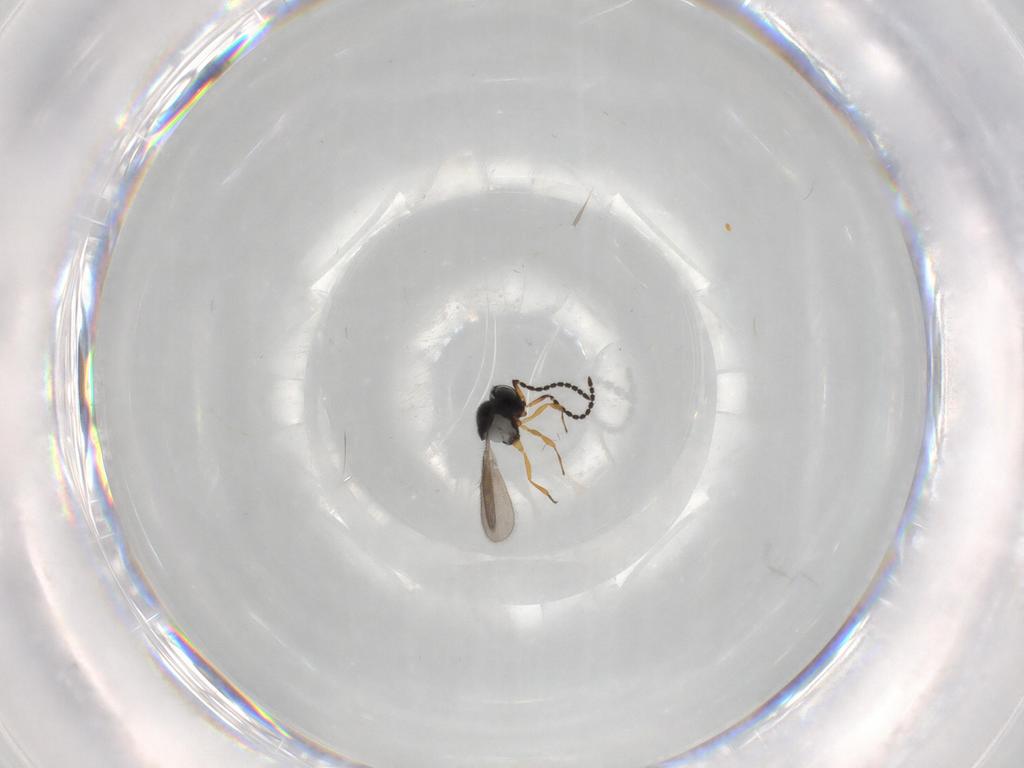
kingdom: Animalia
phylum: Arthropoda
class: Insecta
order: Hymenoptera
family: Scelionidae
